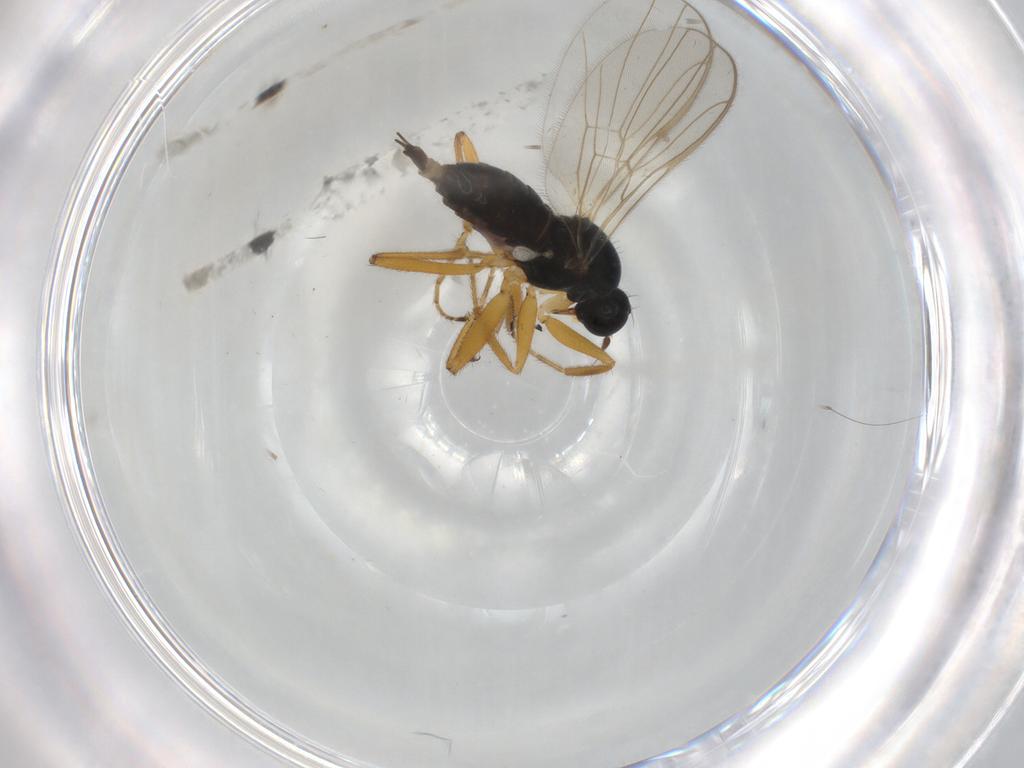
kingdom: Animalia
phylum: Arthropoda
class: Insecta
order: Diptera
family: Hybotidae
